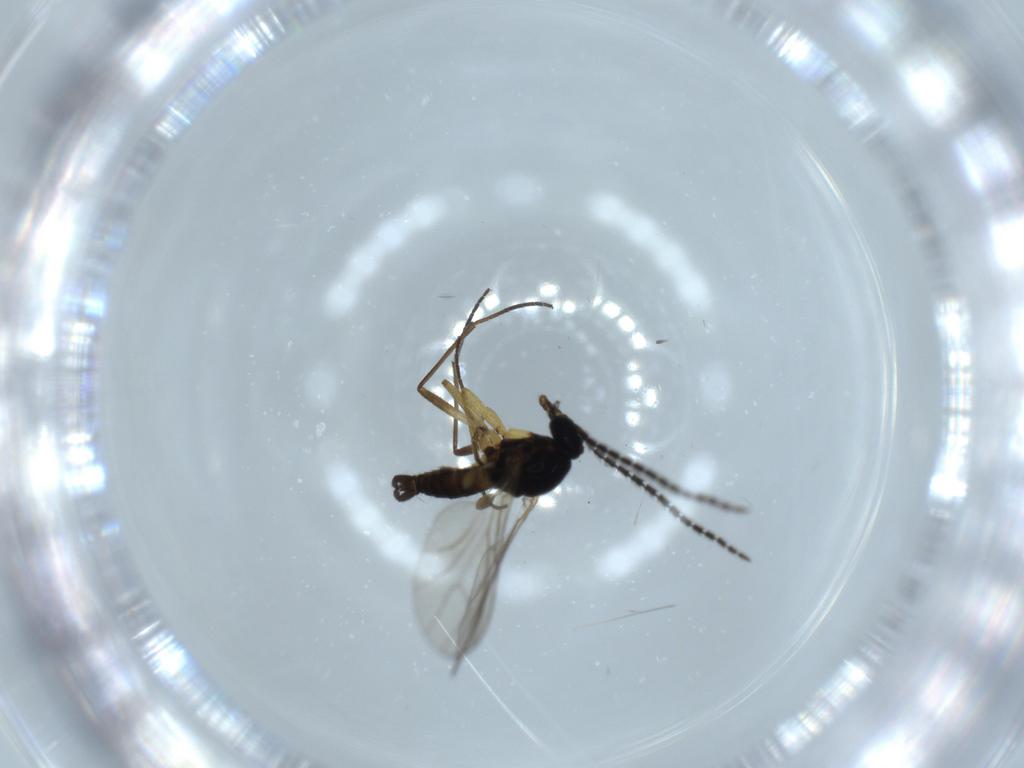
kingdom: Animalia
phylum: Arthropoda
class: Insecta
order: Diptera
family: Sciaridae
